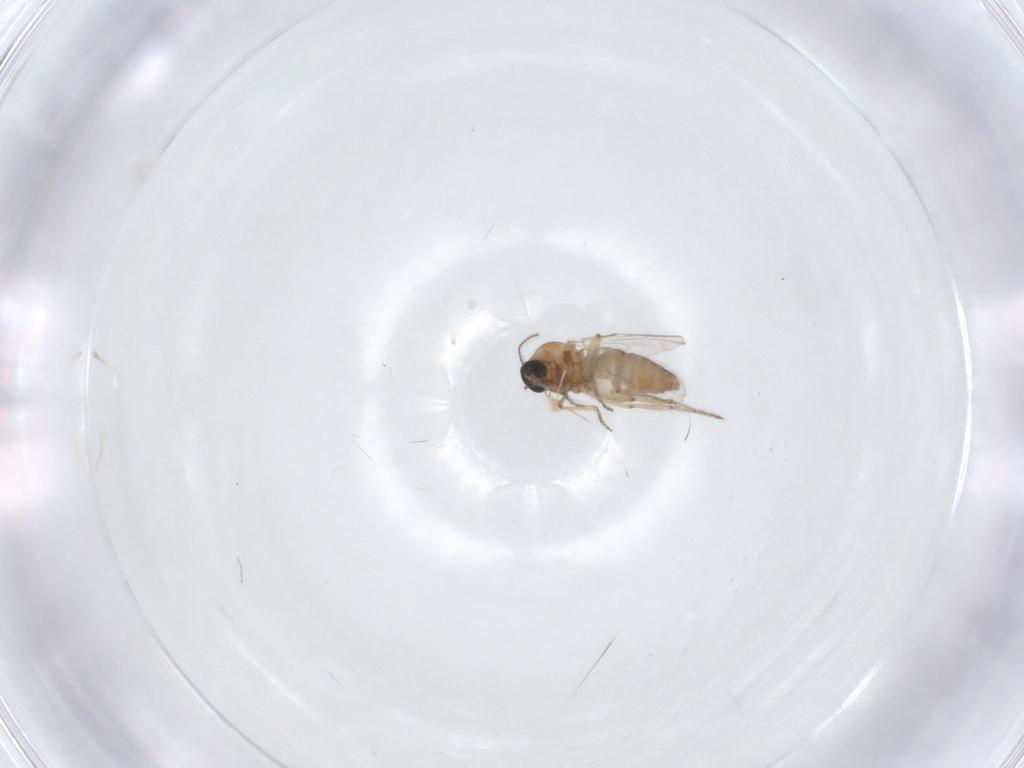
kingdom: Animalia
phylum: Arthropoda
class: Insecta
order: Diptera
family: Ceratopogonidae
